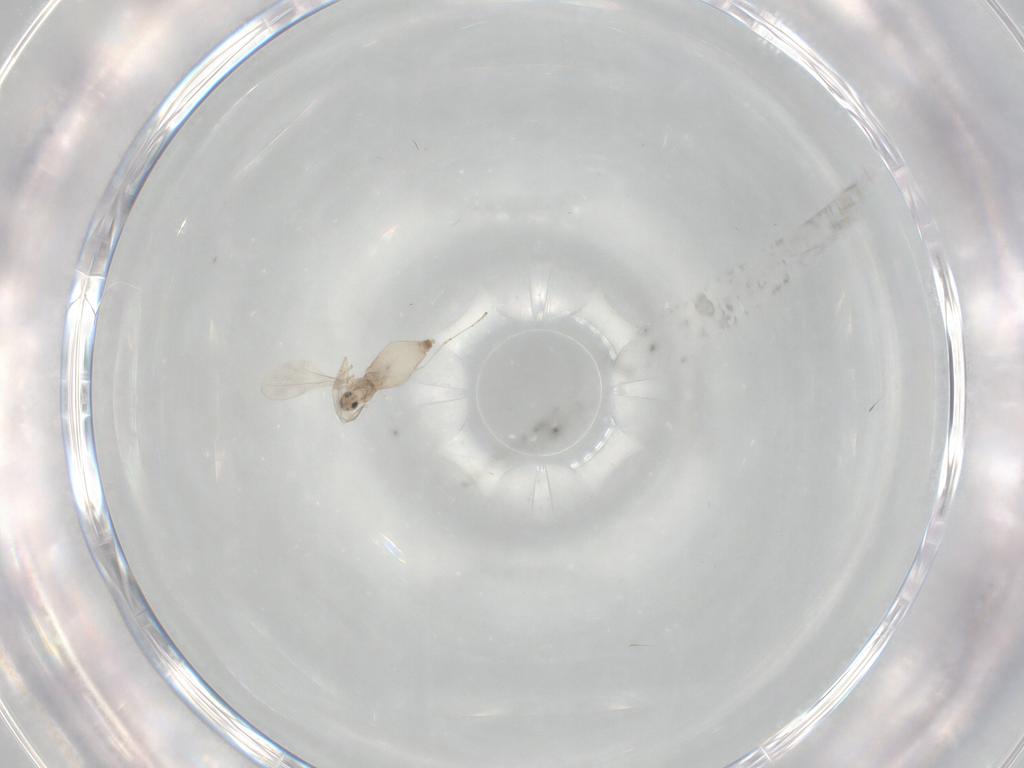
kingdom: Animalia
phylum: Arthropoda
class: Insecta
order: Diptera
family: Cecidomyiidae
